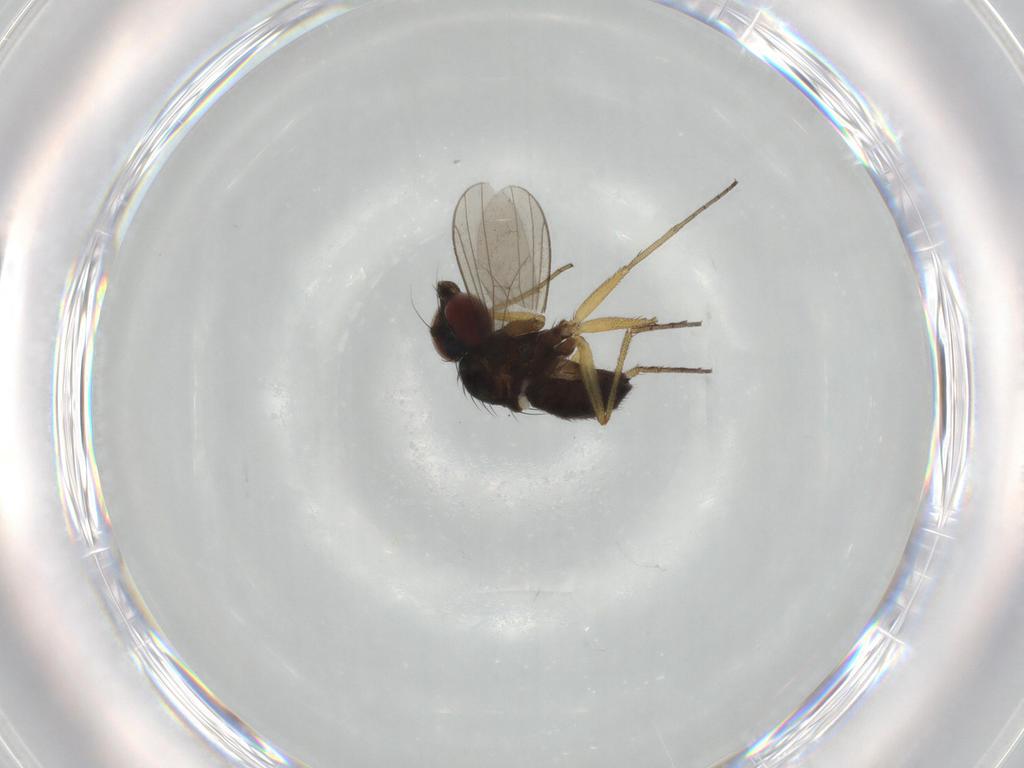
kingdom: Animalia
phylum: Arthropoda
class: Insecta
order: Diptera
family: Dolichopodidae
